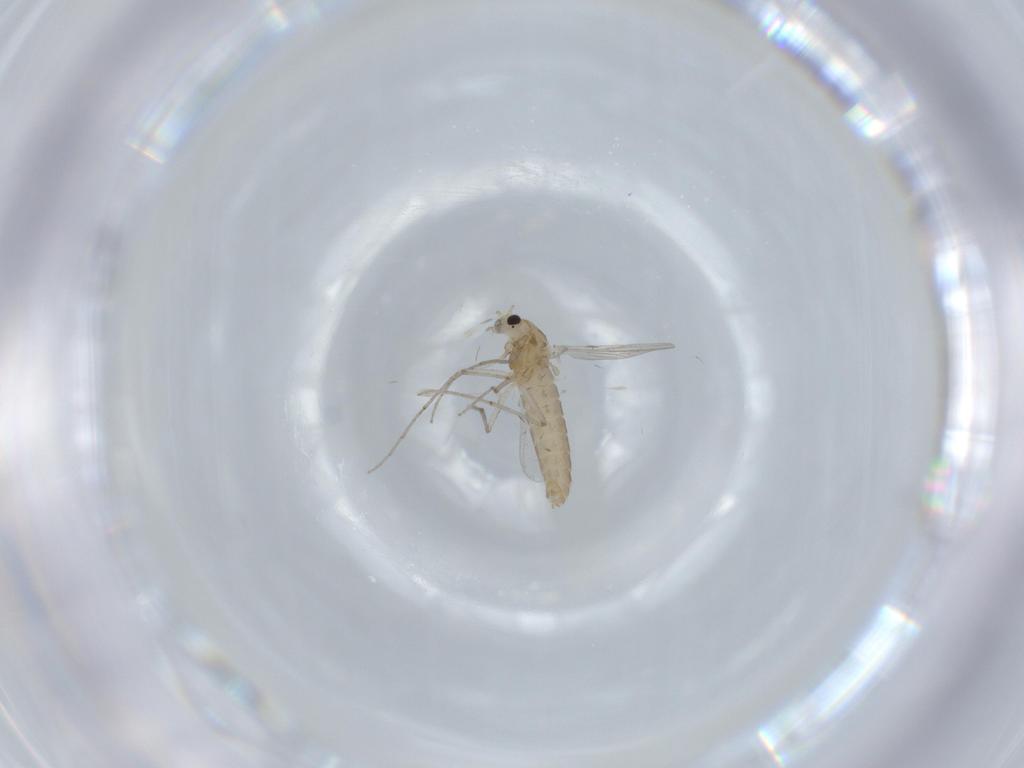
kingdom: Animalia
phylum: Arthropoda
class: Insecta
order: Diptera
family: Chironomidae
